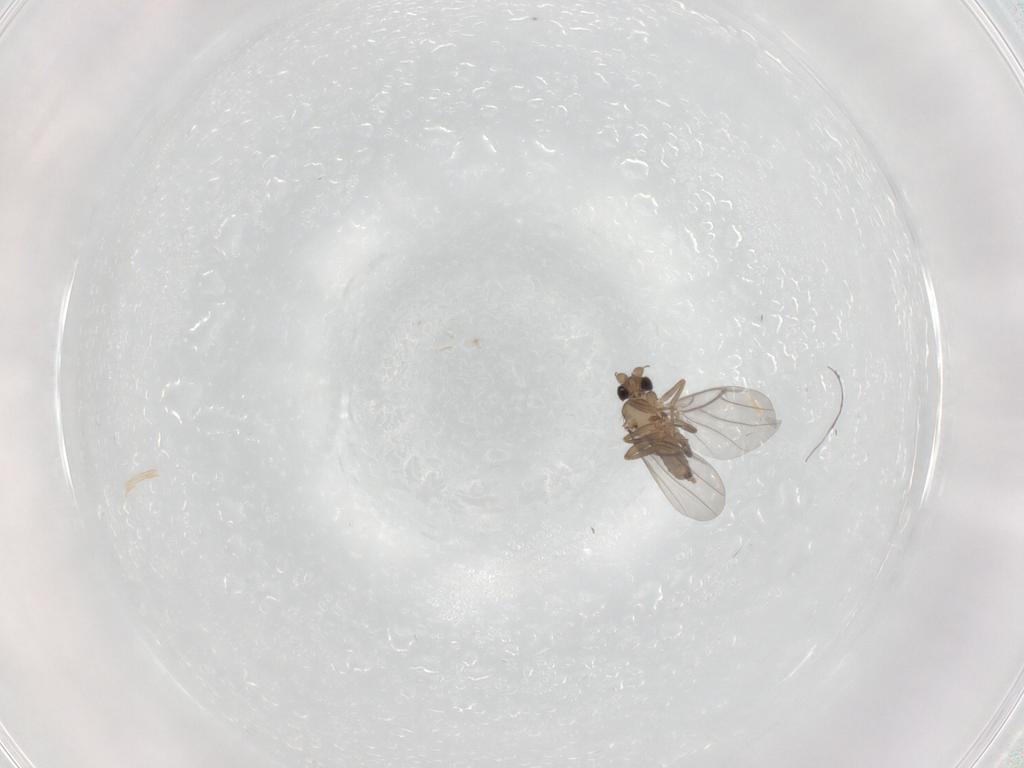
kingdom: Animalia
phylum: Arthropoda
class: Insecta
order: Diptera
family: Psychodidae
